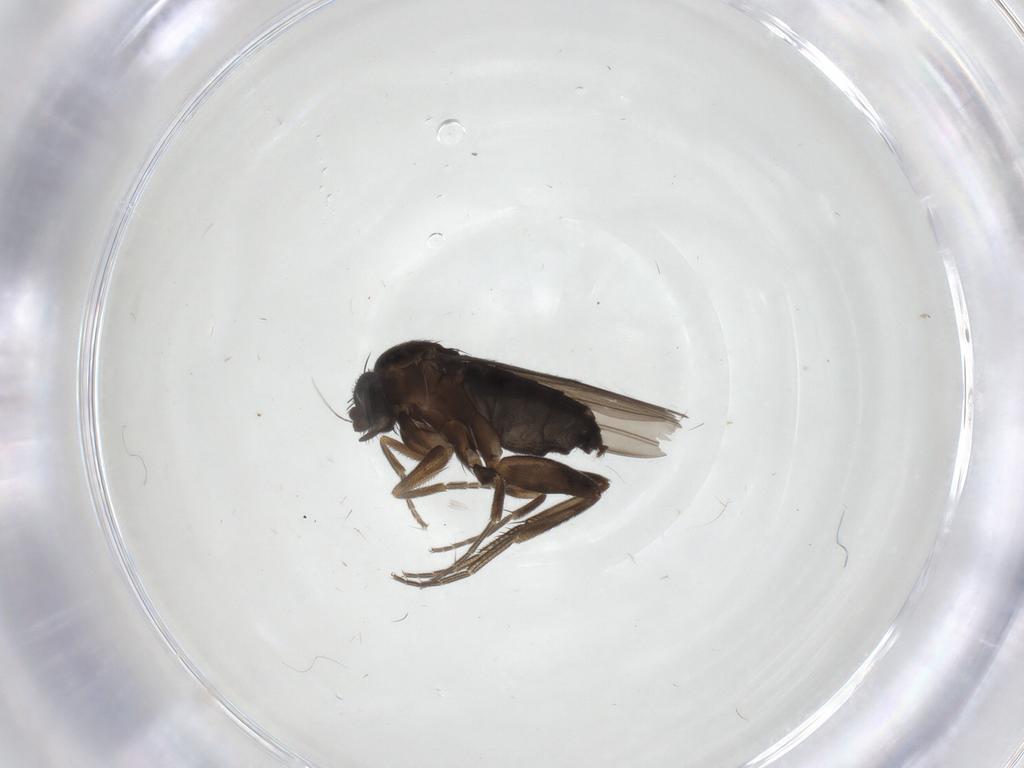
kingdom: Animalia
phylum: Arthropoda
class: Insecta
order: Diptera
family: Phoridae
